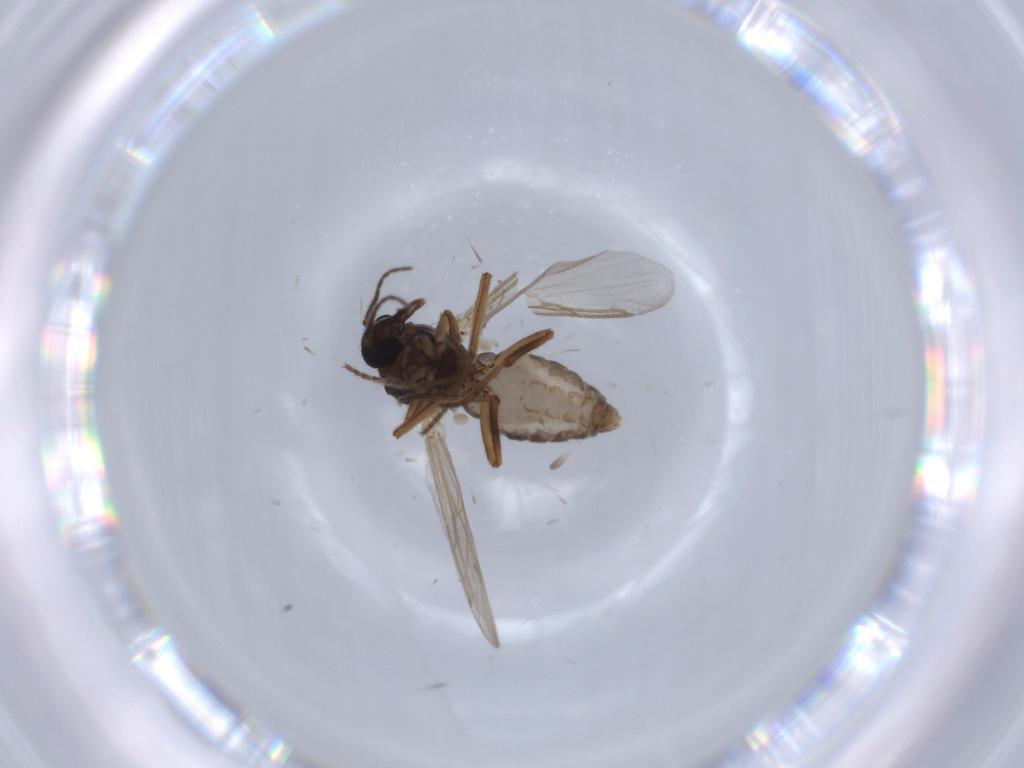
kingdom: Animalia
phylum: Arthropoda
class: Insecta
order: Diptera
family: Ceratopogonidae
